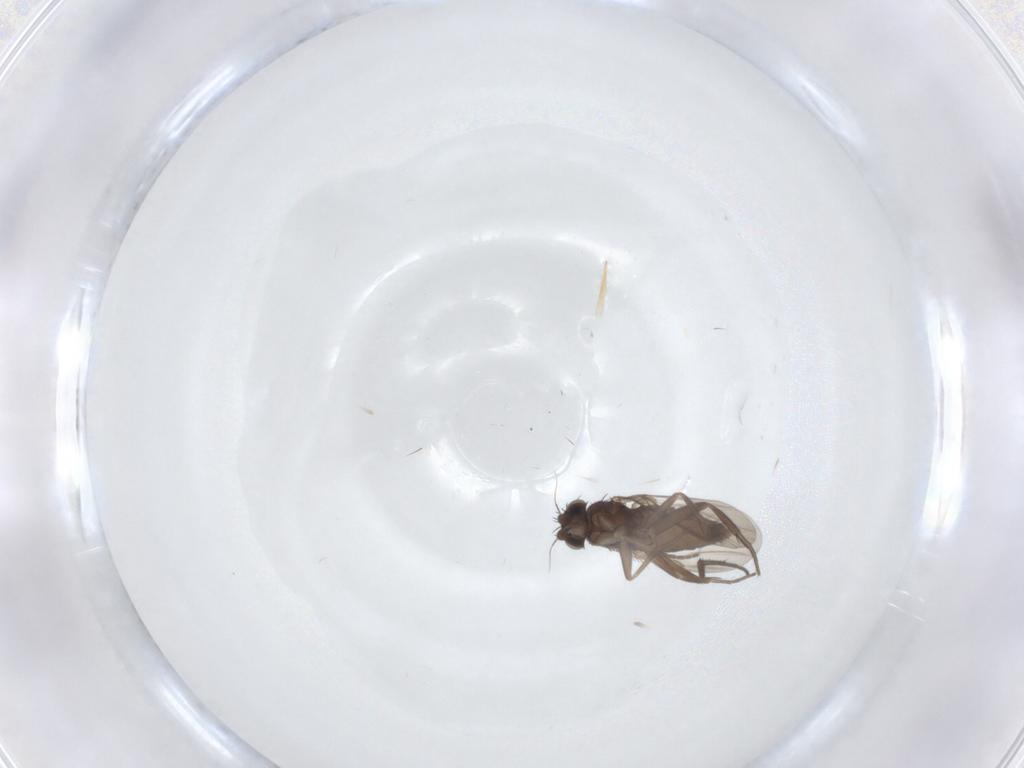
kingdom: Animalia
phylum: Arthropoda
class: Insecta
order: Diptera
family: Phoridae
